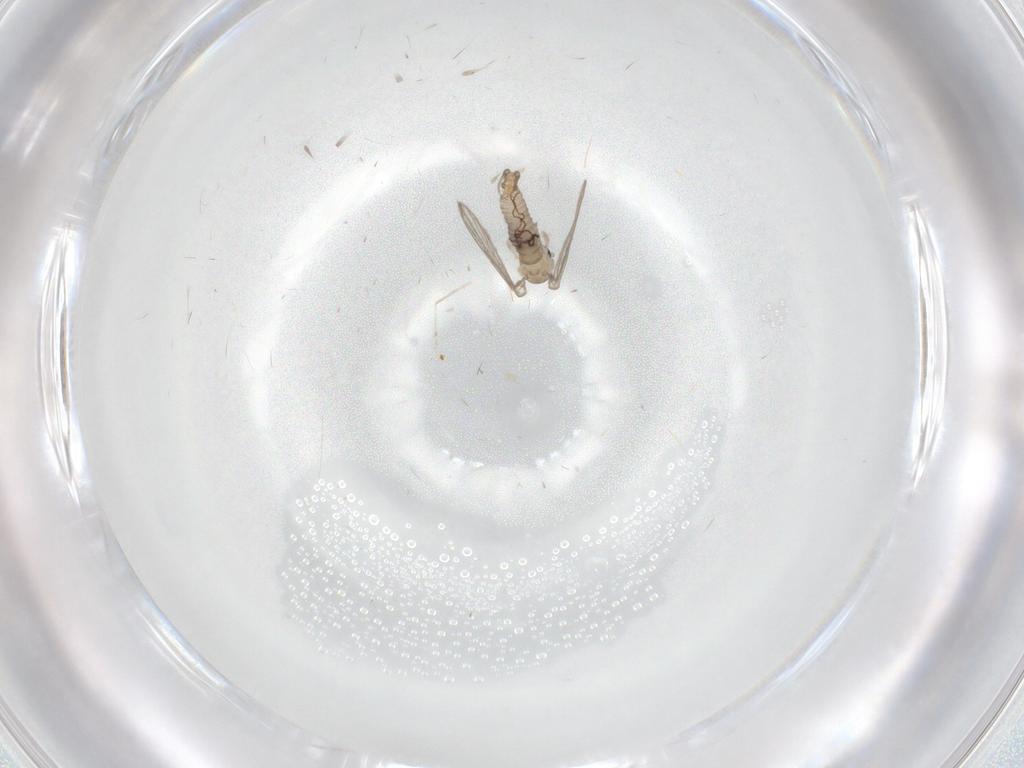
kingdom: Animalia
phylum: Arthropoda
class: Insecta
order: Diptera
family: Psychodidae
